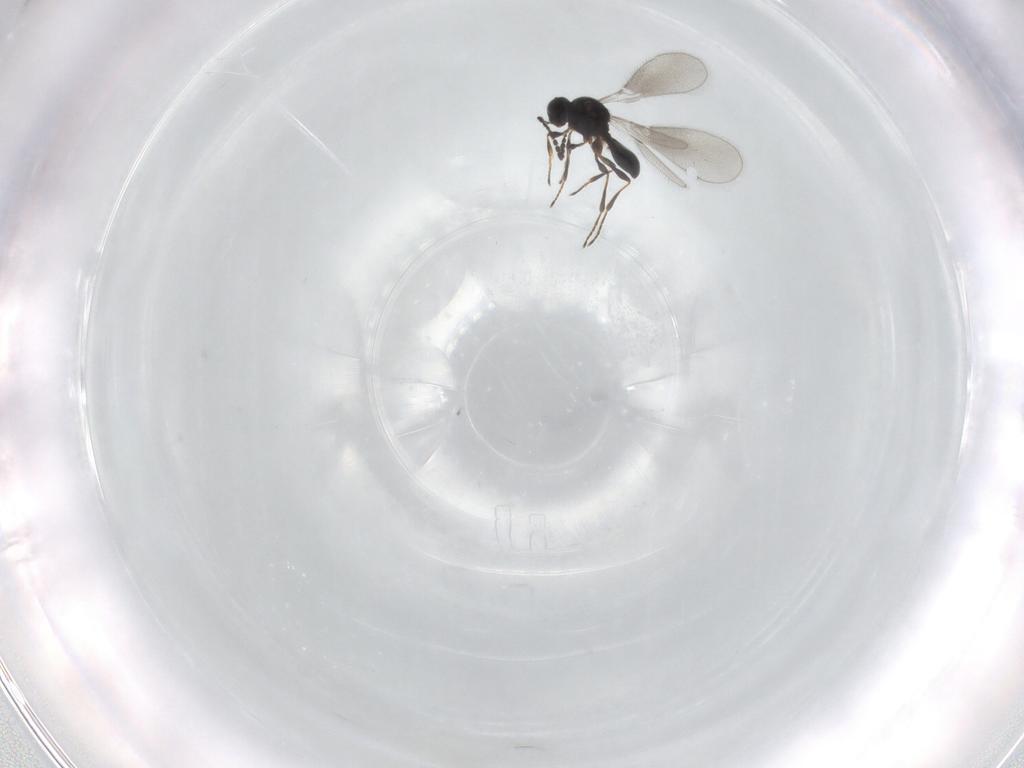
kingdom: Animalia
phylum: Arthropoda
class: Insecta
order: Hymenoptera
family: Platygastridae
